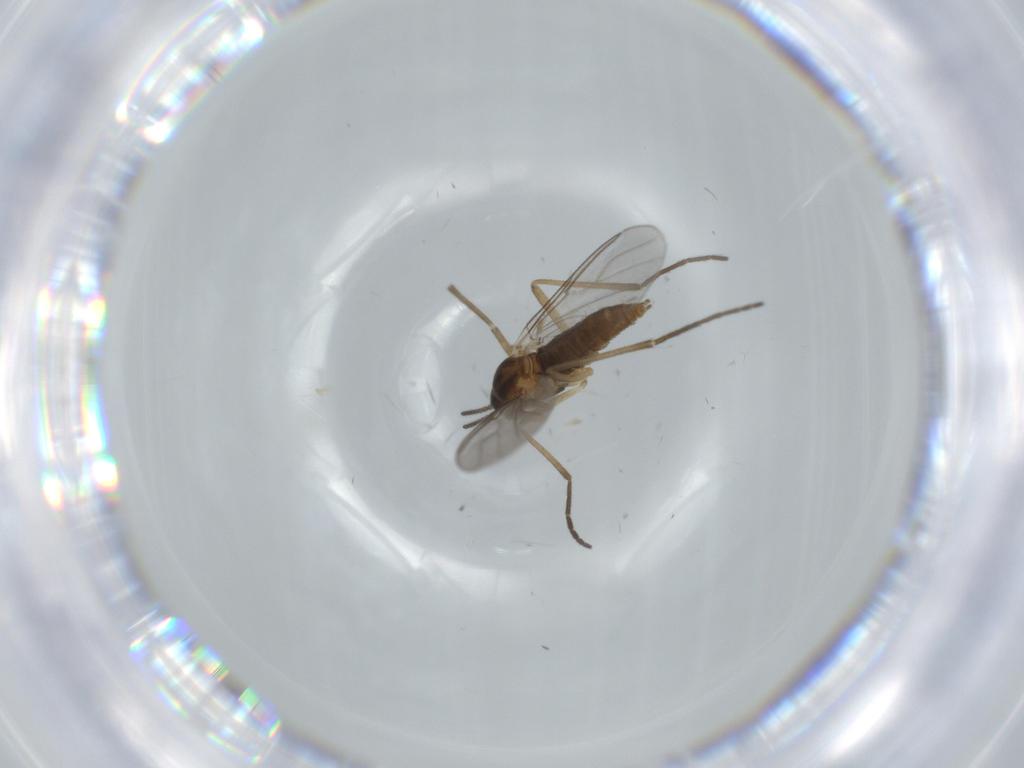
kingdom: Animalia
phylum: Arthropoda
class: Insecta
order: Diptera
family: Cecidomyiidae
